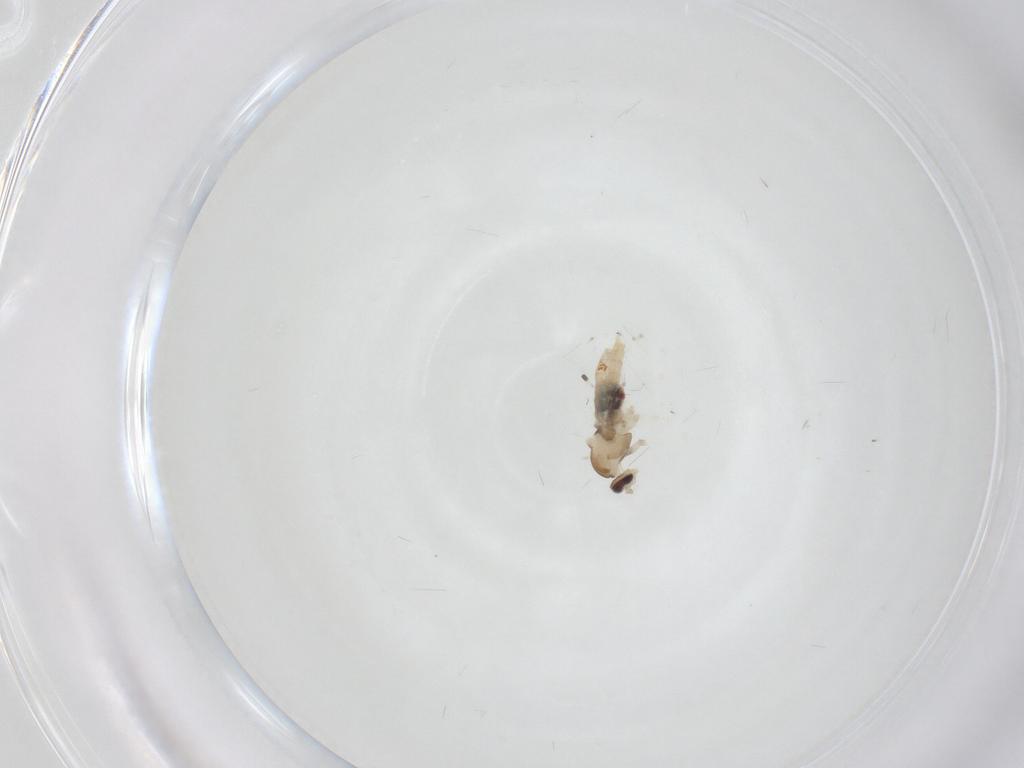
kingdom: Animalia
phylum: Arthropoda
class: Insecta
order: Diptera
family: Cecidomyiidae
